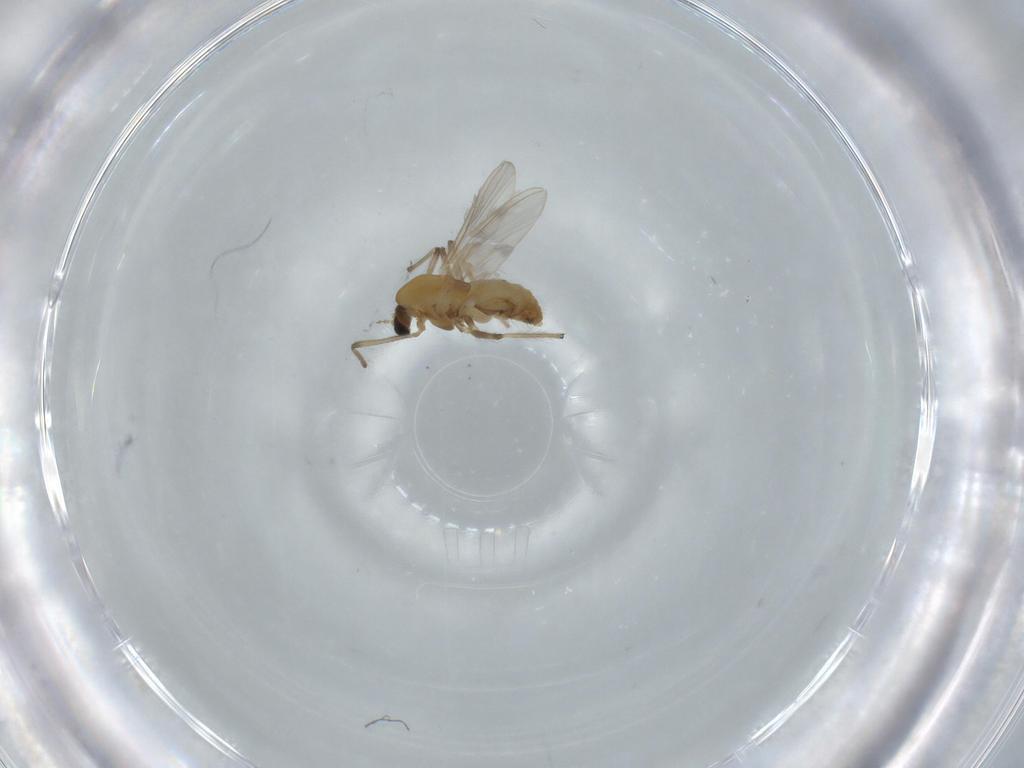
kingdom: Animalia
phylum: Arthropoda
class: Insecta
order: Diptera
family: Chironomidae
